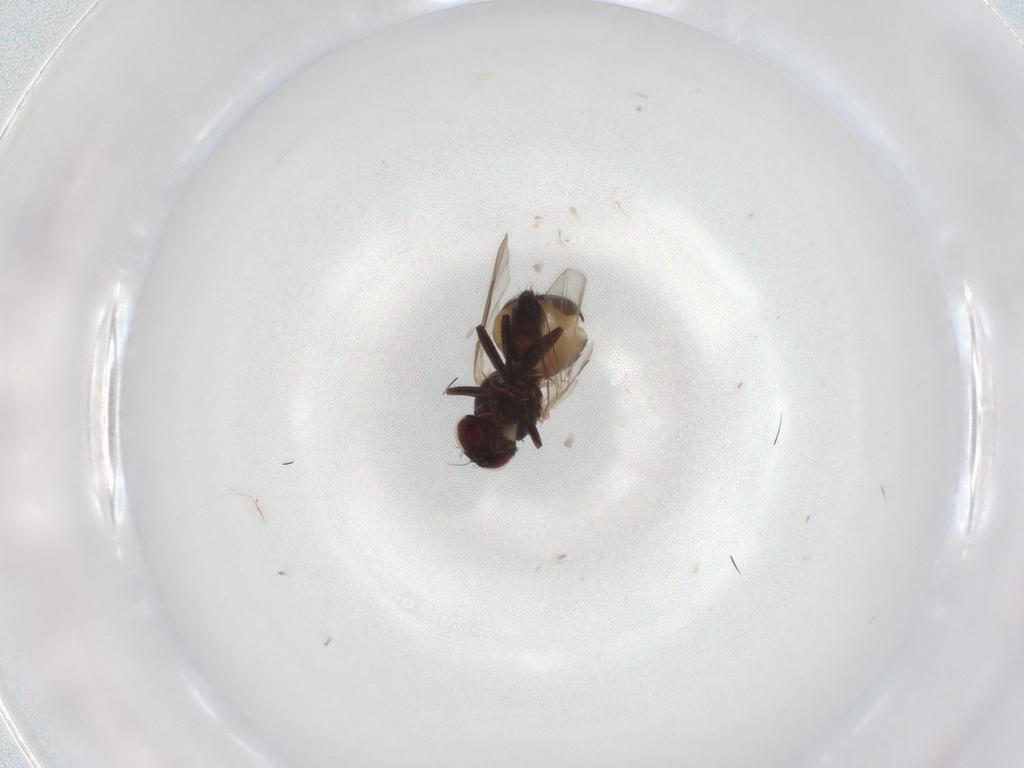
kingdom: Animalia
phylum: Arthropoda
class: Insecta
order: Diptera
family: Agromyzidae
